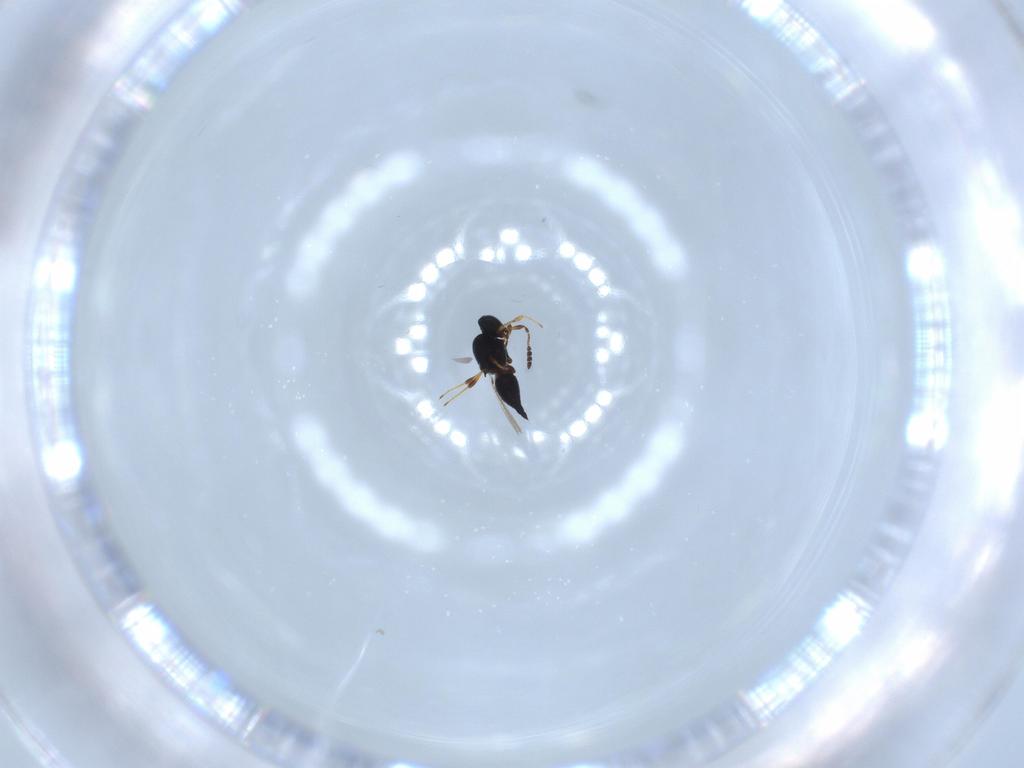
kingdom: Animalia
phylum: Arthropoda
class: Insecta
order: Hymenoptera
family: Platygastridae
